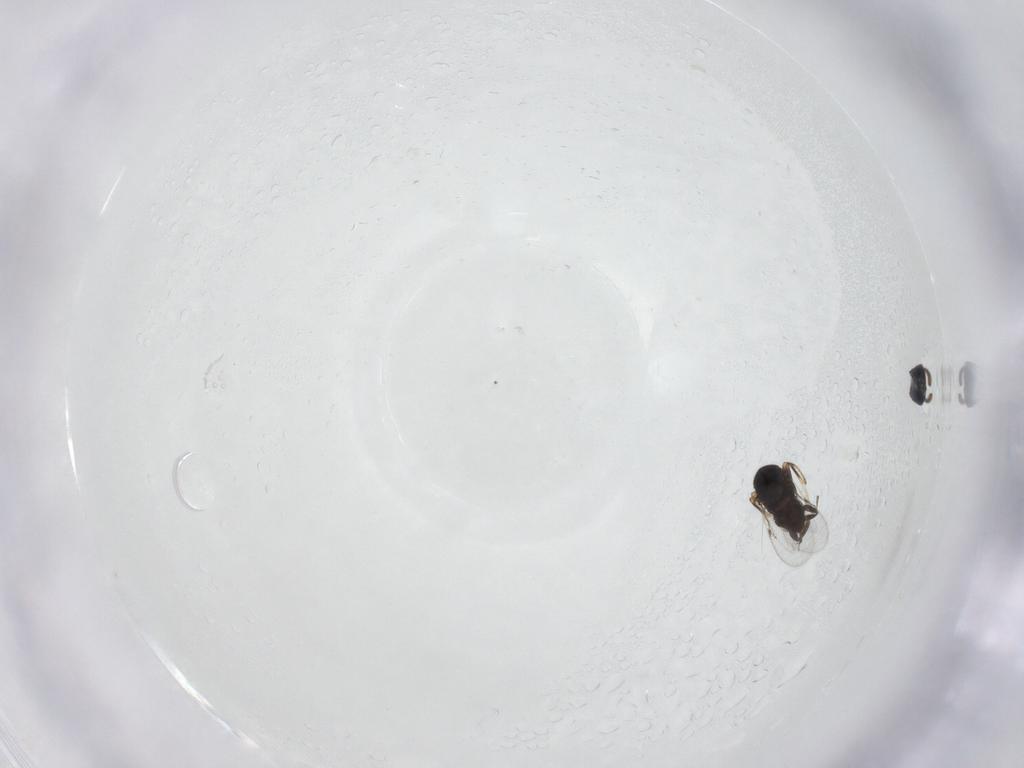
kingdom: Animalia
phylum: Arthropoda
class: Insecta
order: Hymenoptera
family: Encyrtidae
